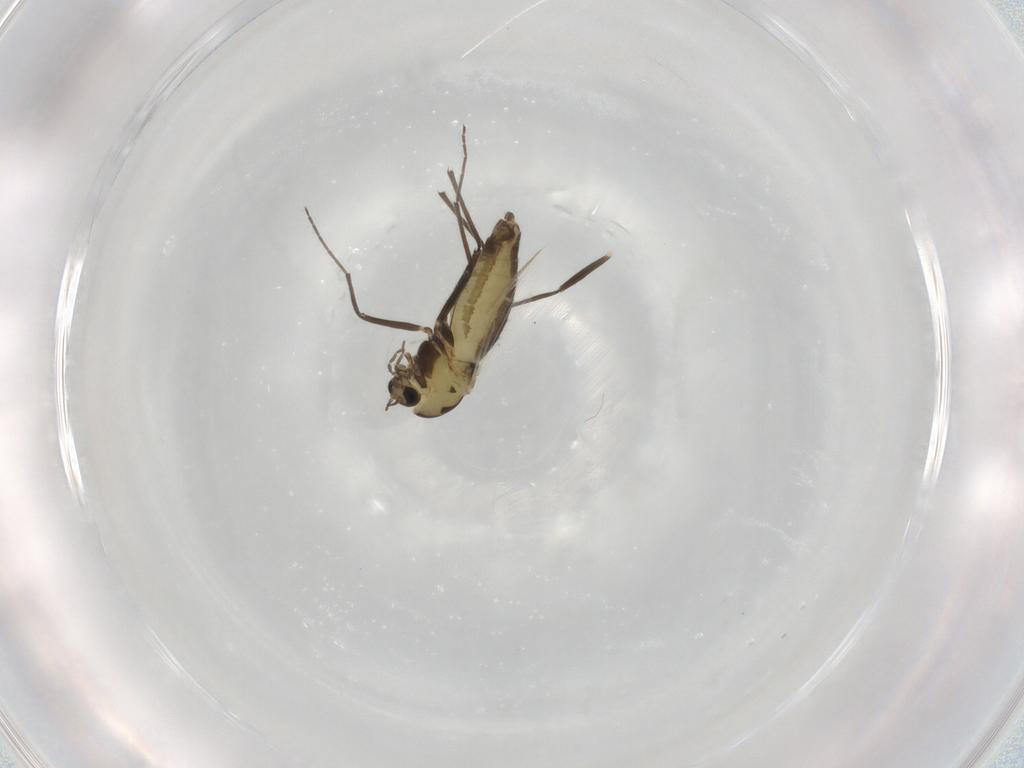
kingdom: Animalia
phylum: Arthropoda
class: Insecta
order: Diptera
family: Chironomidae
